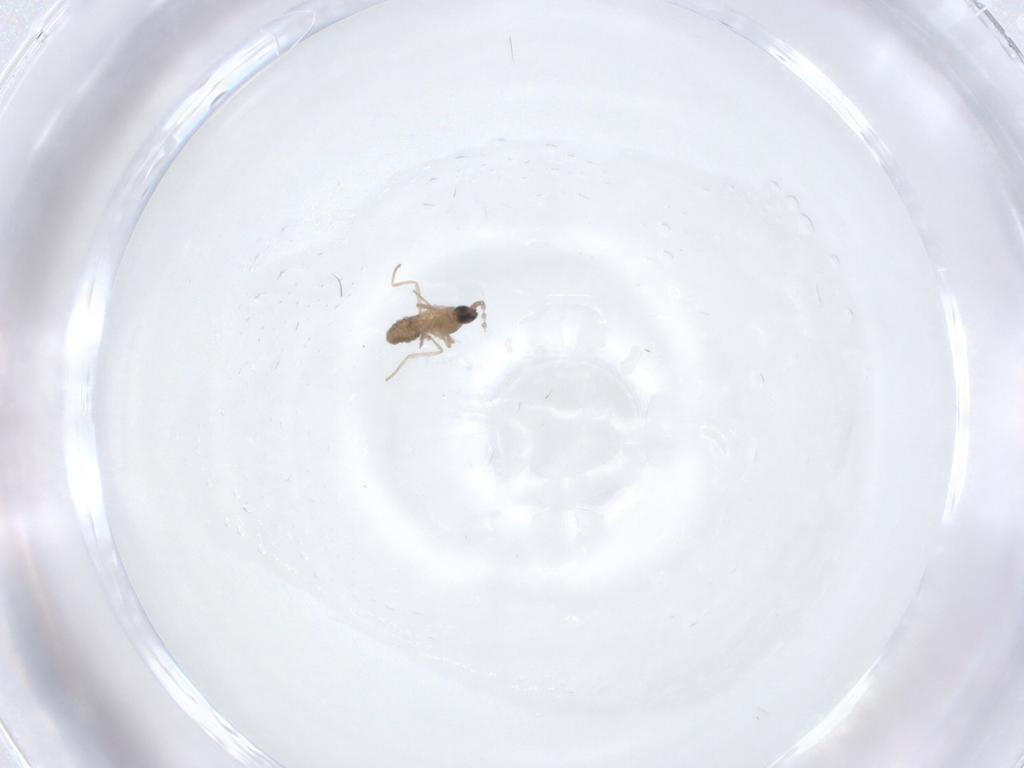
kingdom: Animalia
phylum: Arthropoda
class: Insecta
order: Diptera
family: Cecidomyiidae
